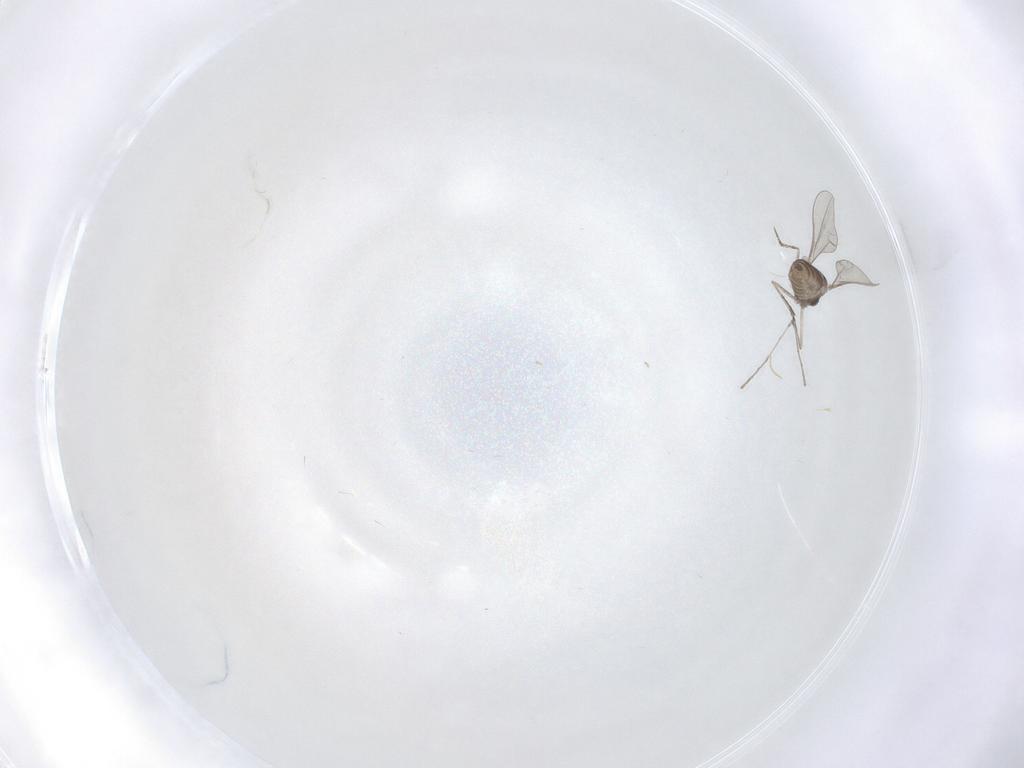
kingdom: Animalia
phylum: Arthropoda
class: Insecta
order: Diptera
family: Cecidomyiidae
